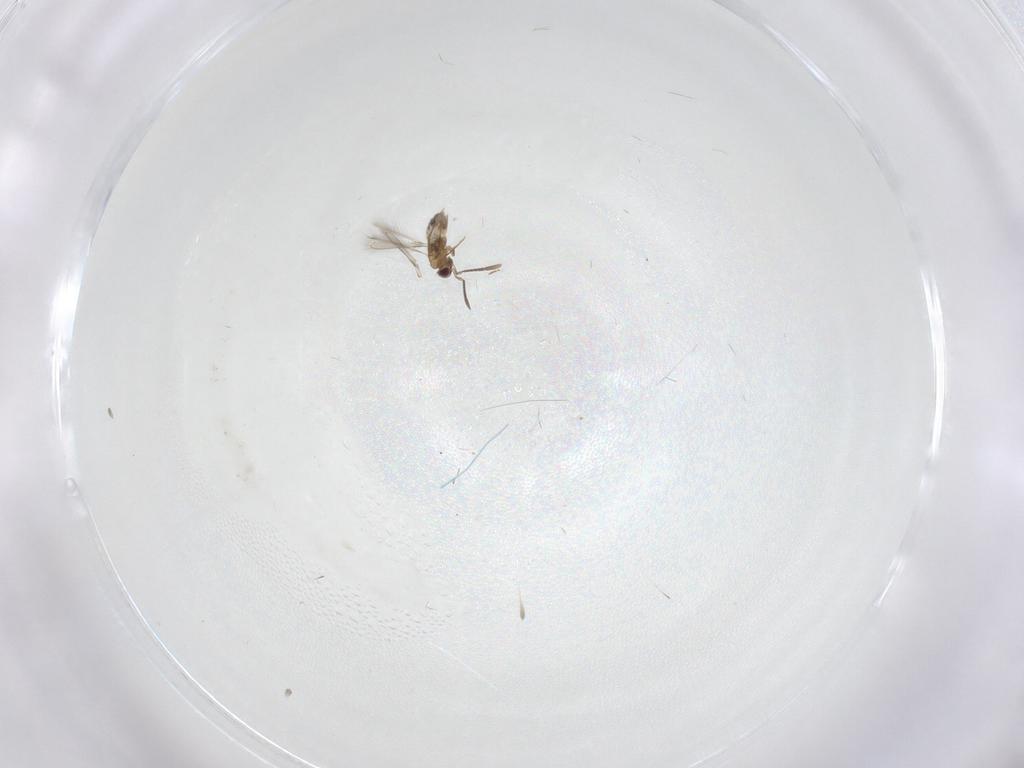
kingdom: Animalia
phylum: Arthropoda
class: Insecta
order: Hymenoptera
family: Mymaridae
